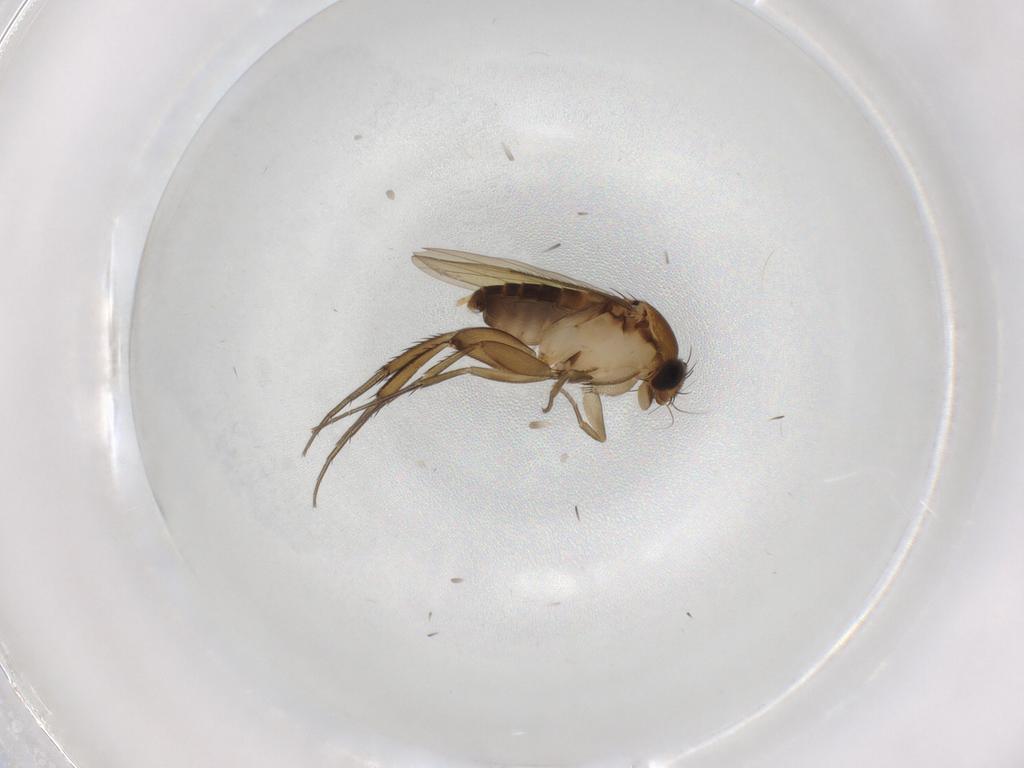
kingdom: Animalia
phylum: Arthropoda
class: Insecta
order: Diptera
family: Phoridae
